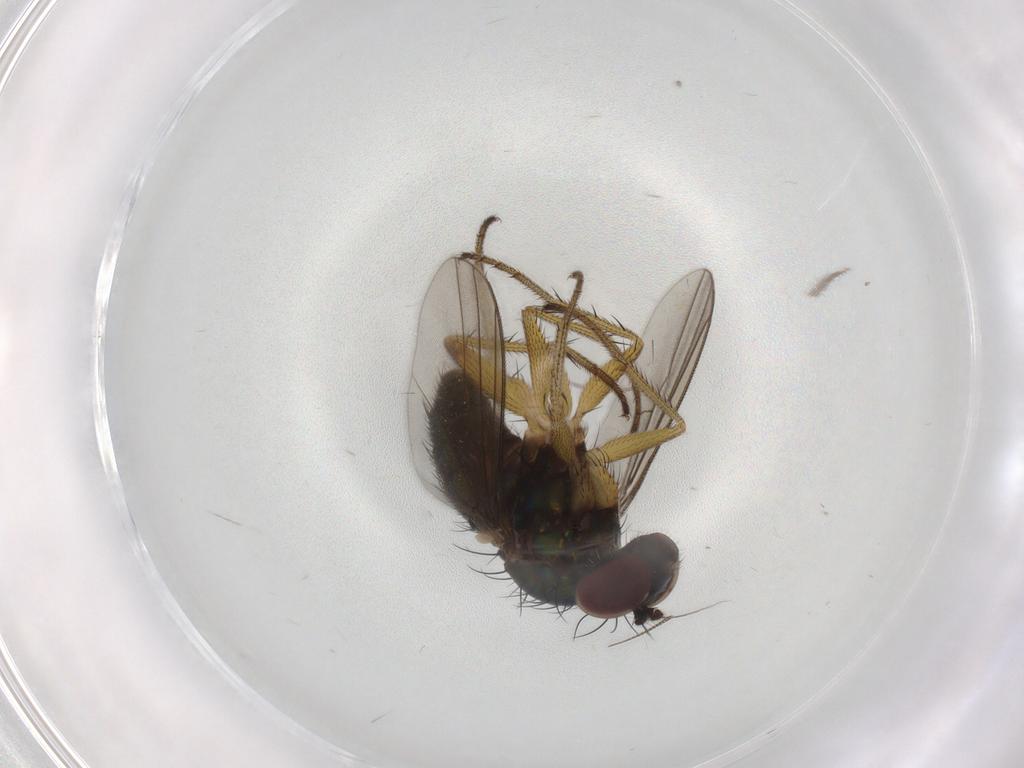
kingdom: Animalia
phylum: Arthropoda
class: Insecta
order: Diptera
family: Dolichopodidae
